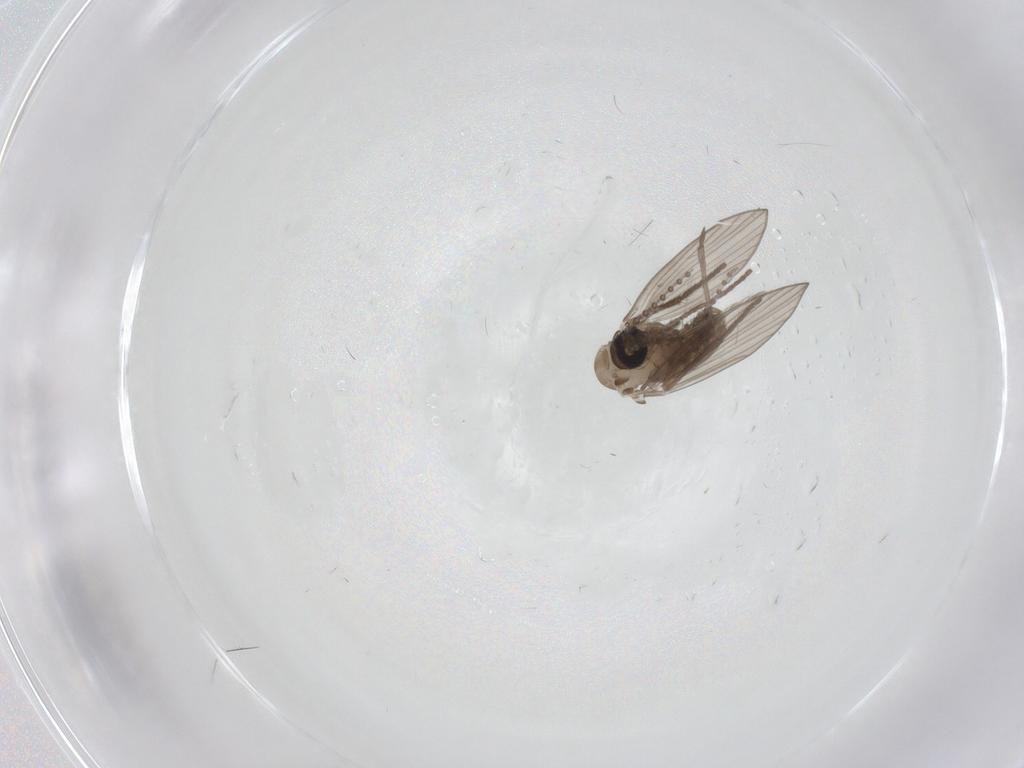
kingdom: Animalia
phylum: Arthropoda
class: Insecta
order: Diptera
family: Psychodidae
